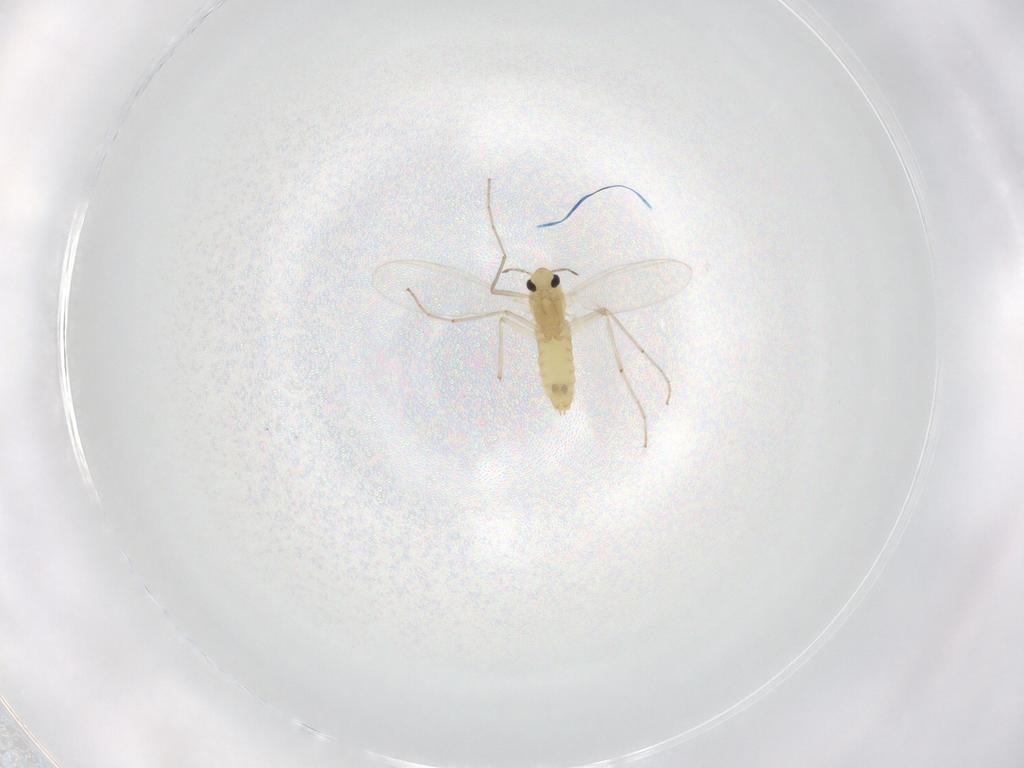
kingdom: Animalia
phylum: Arthropoda
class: Insecta
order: Diptera
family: Chironomidae
